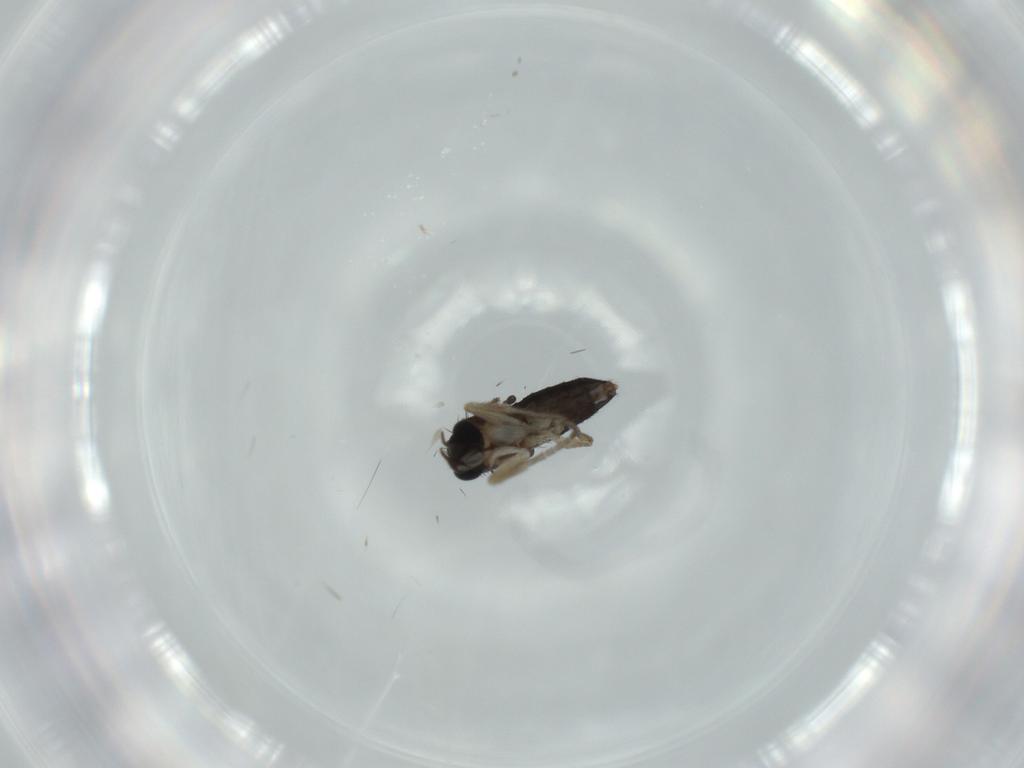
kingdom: Animalia
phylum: Arthropoda
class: Insecta
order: Diptera
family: Phoridae
